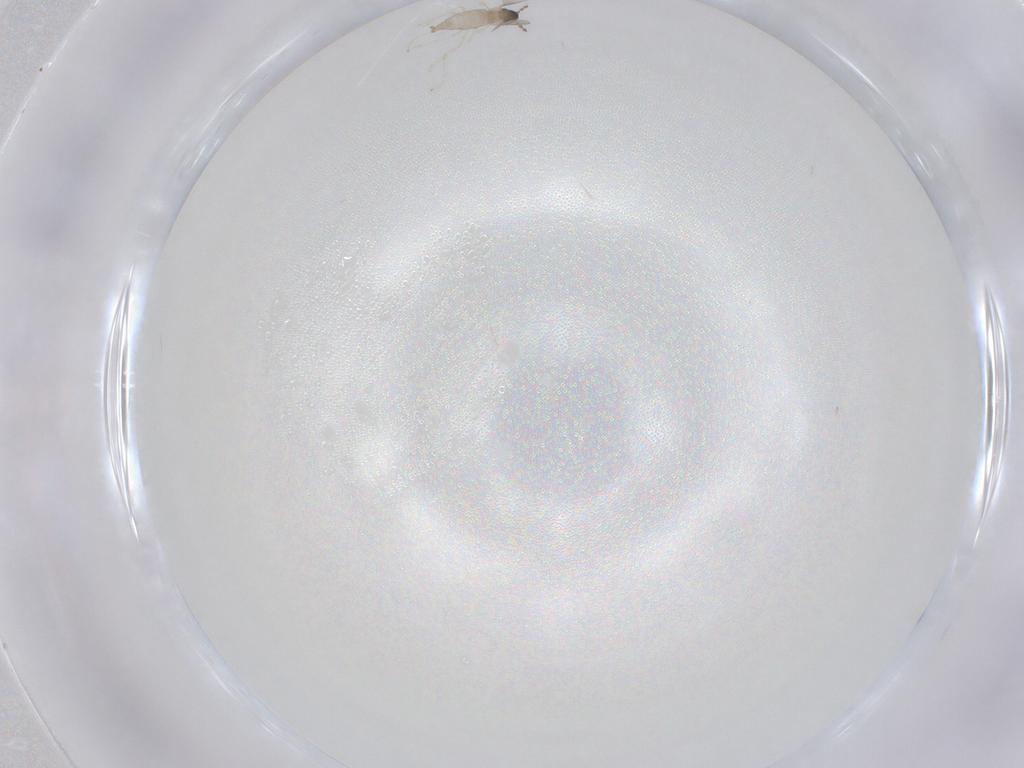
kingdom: Animalia
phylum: Arthropoda
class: Insecta
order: Diptera
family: Cecidomyiidae
